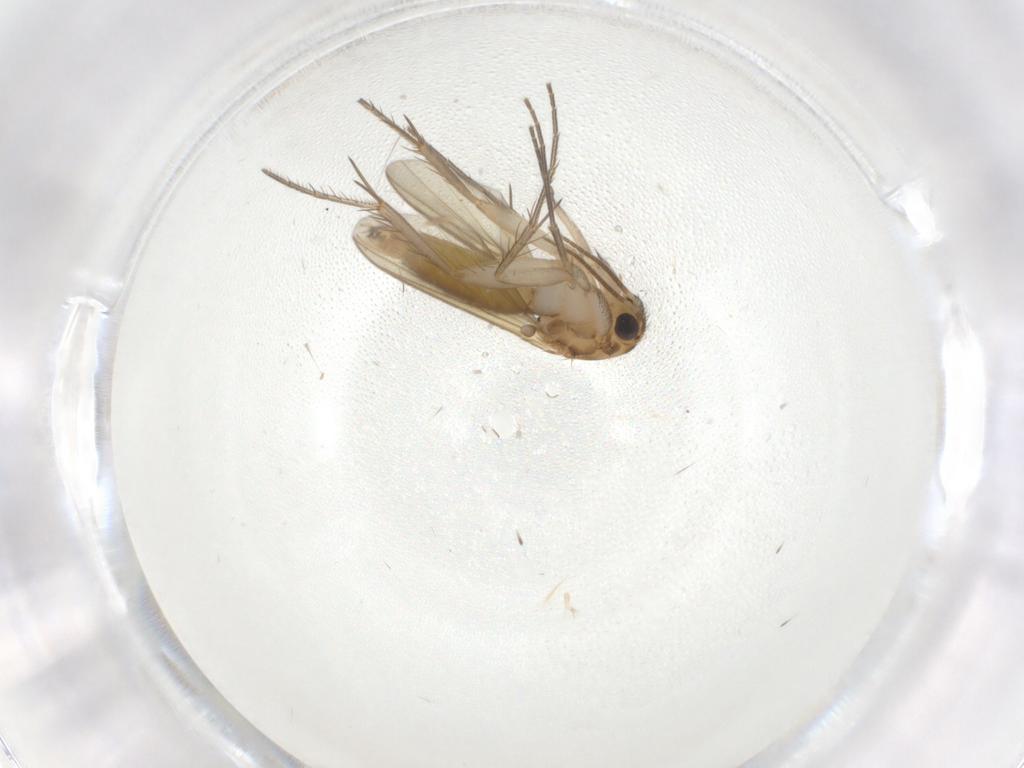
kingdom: Animalia
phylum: Arthropoda
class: Insecta
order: Diptera
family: Mycetophilidae
